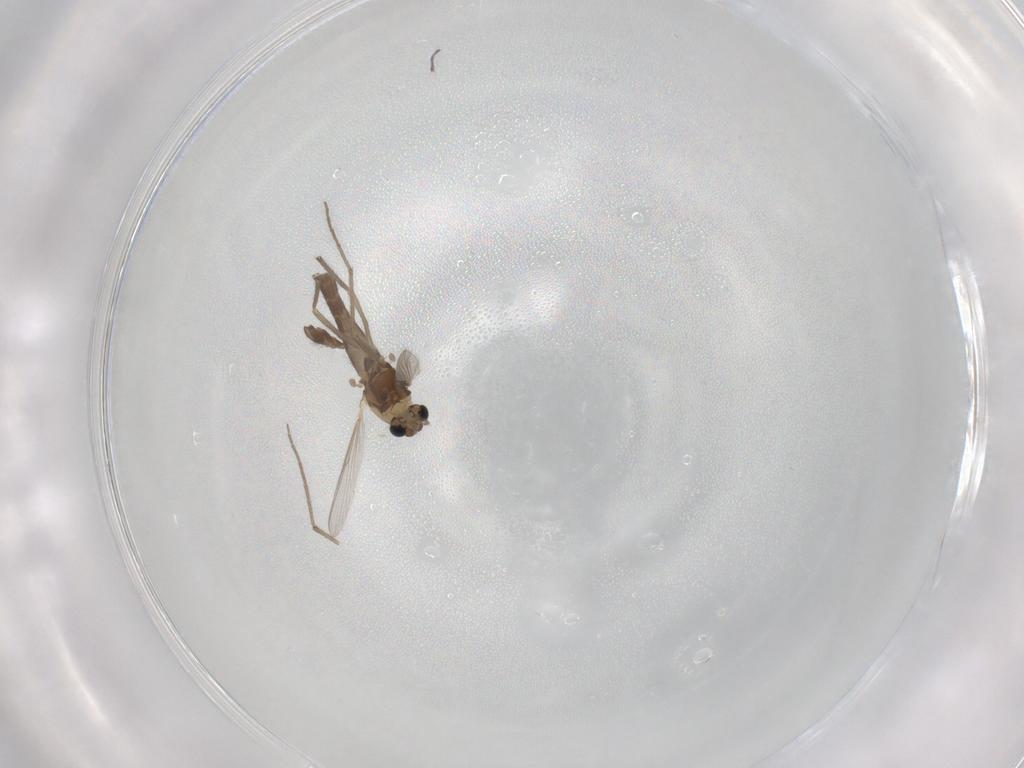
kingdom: Animalia
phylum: Arthropoda
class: Insecta
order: Diptera
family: Chironomidae
